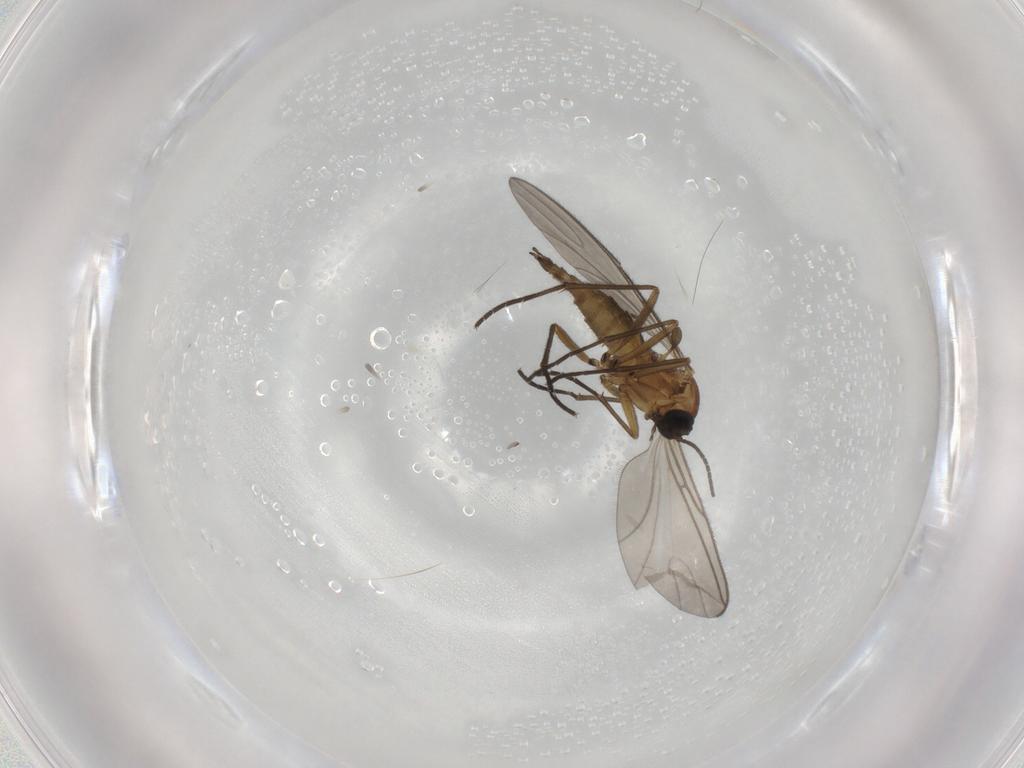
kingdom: Animalia
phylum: Arthropoda
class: Insecta
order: Diptera
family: Sciaridae
